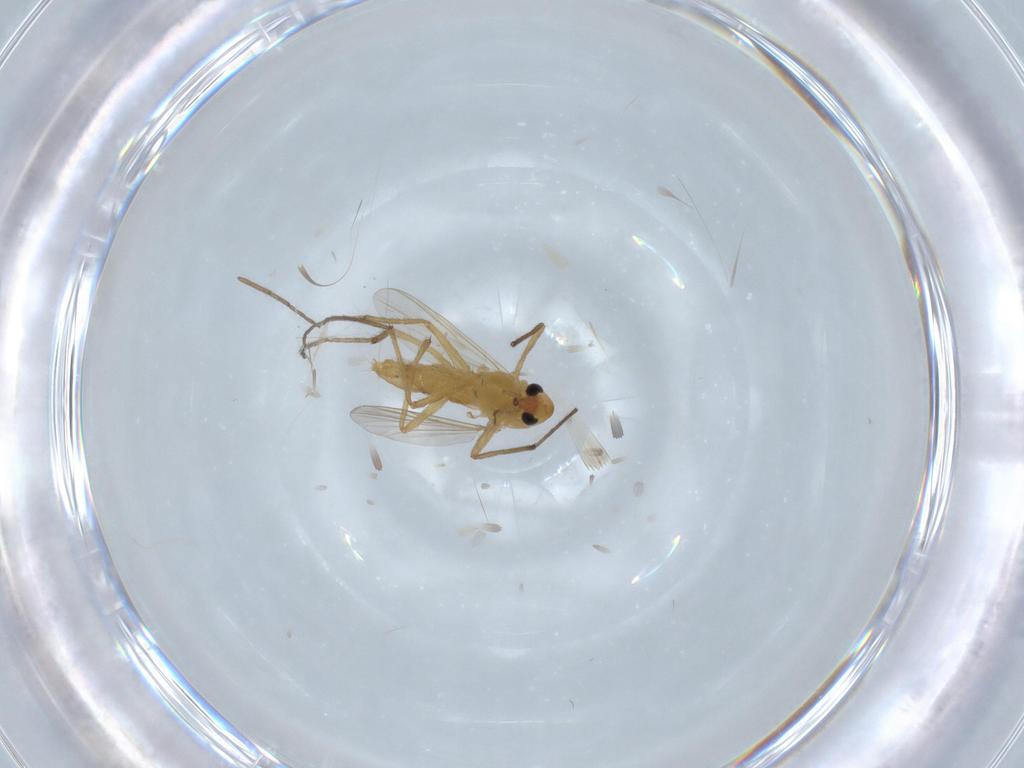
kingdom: Animalia
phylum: Arthropoda
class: Insecta
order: Diptera
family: Chironomidae
